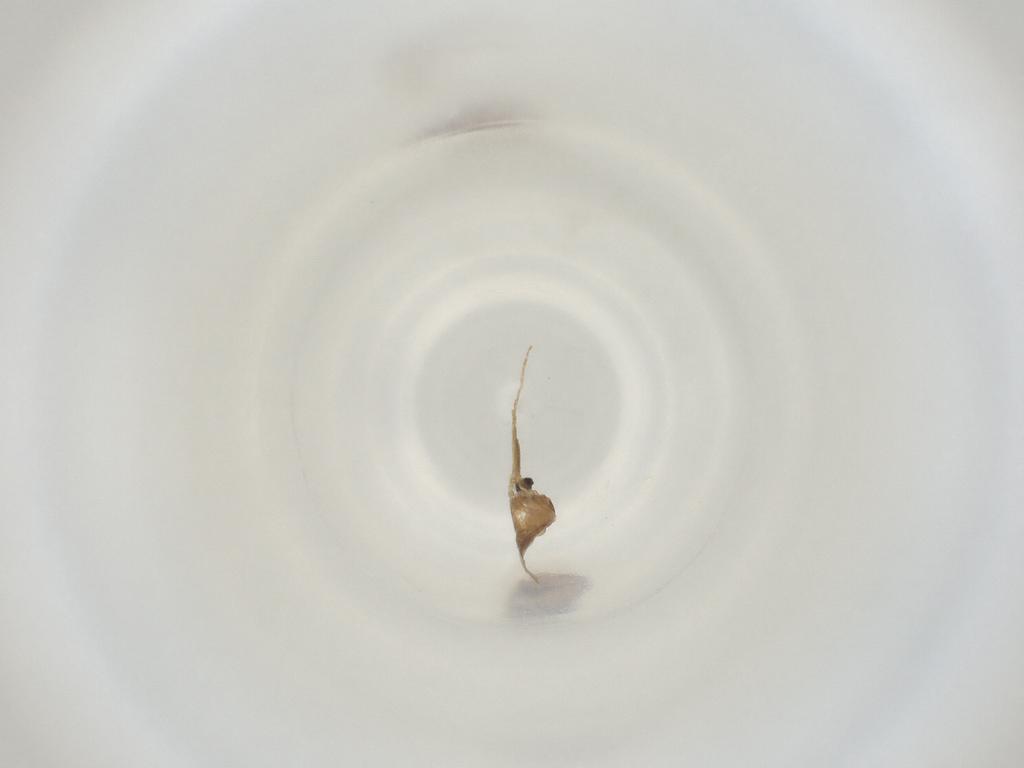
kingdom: Animalia
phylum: Arthropoda
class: Insecta
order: Diptera
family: Cecidomyiidae
